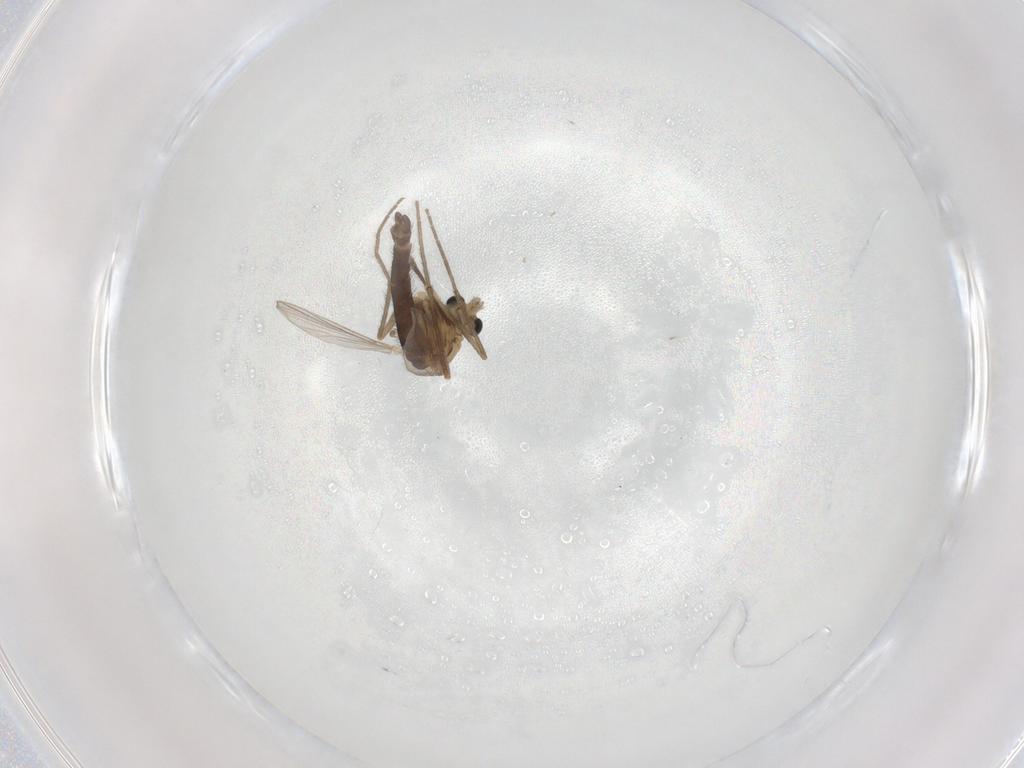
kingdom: Animalia
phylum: Arthropoda
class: Insecta
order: Diptera
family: Chironomidae
